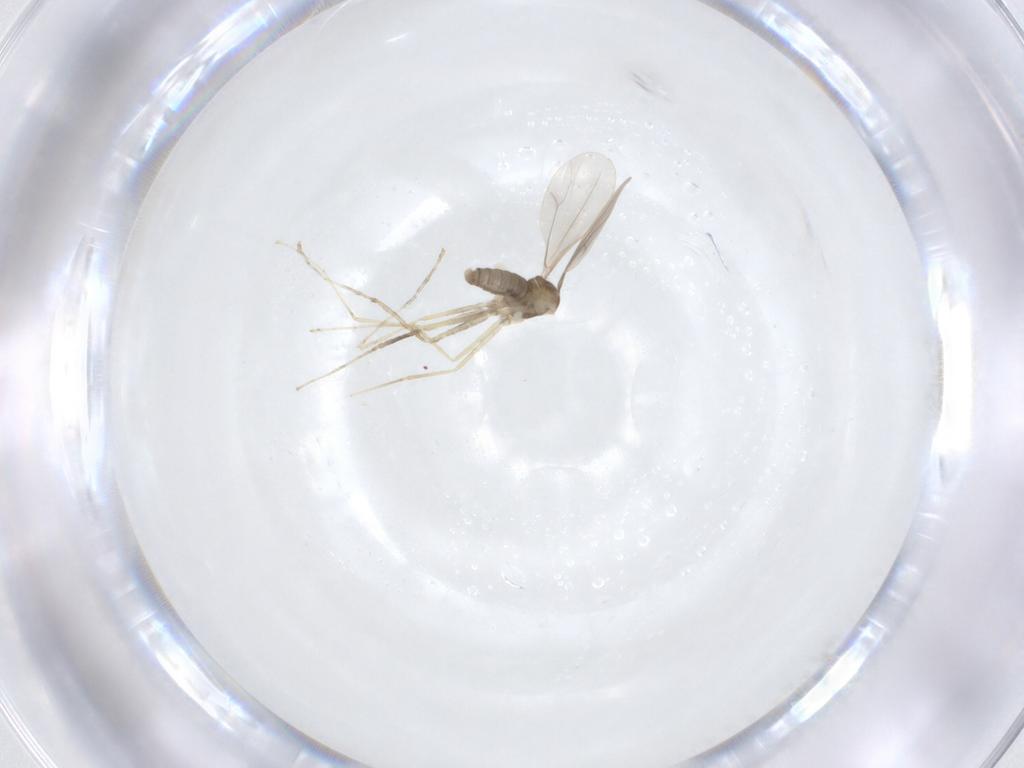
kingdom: Animalia
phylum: Arthropoda
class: Insecta
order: Diptera
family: Cecidomyiidae
